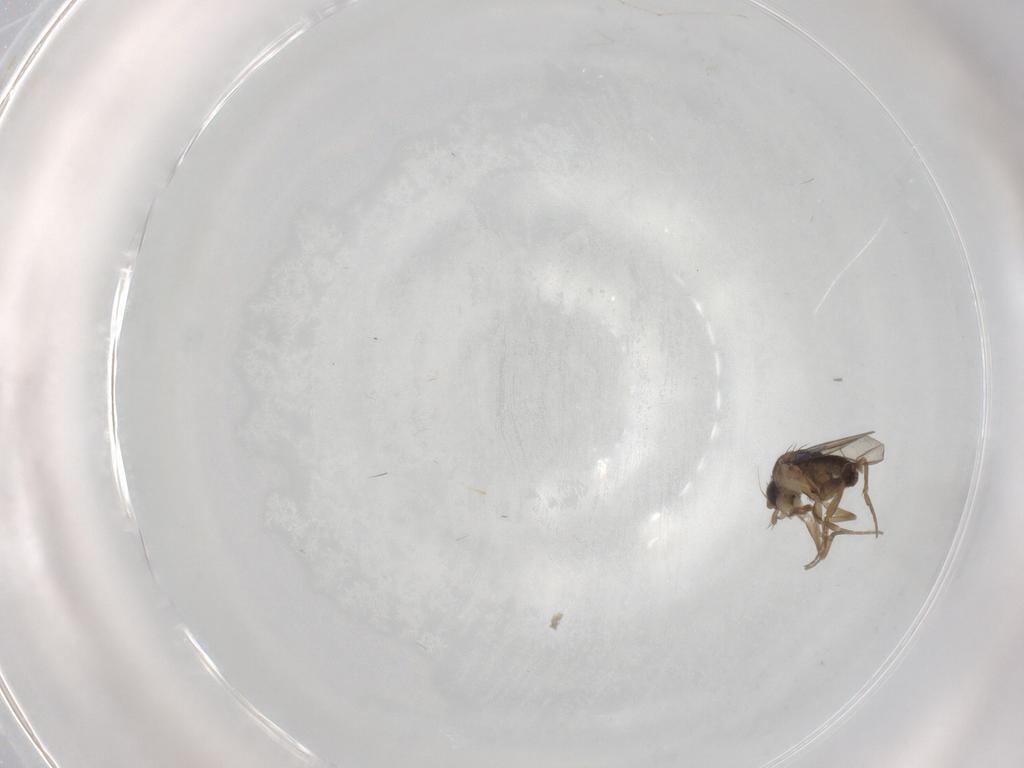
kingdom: Animalia
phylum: Arthropoda
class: Insecta
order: Diptera
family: Phoridae
